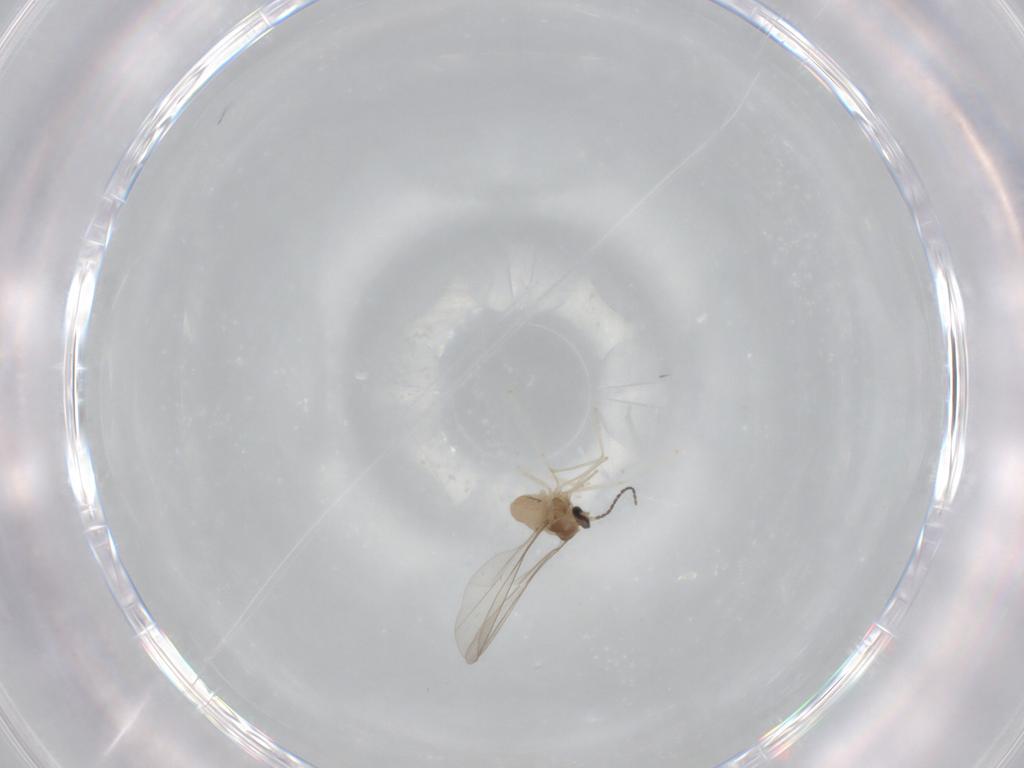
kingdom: Animalia
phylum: Arthropoda
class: Insecta
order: Diptera
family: Cecidomyiidae
